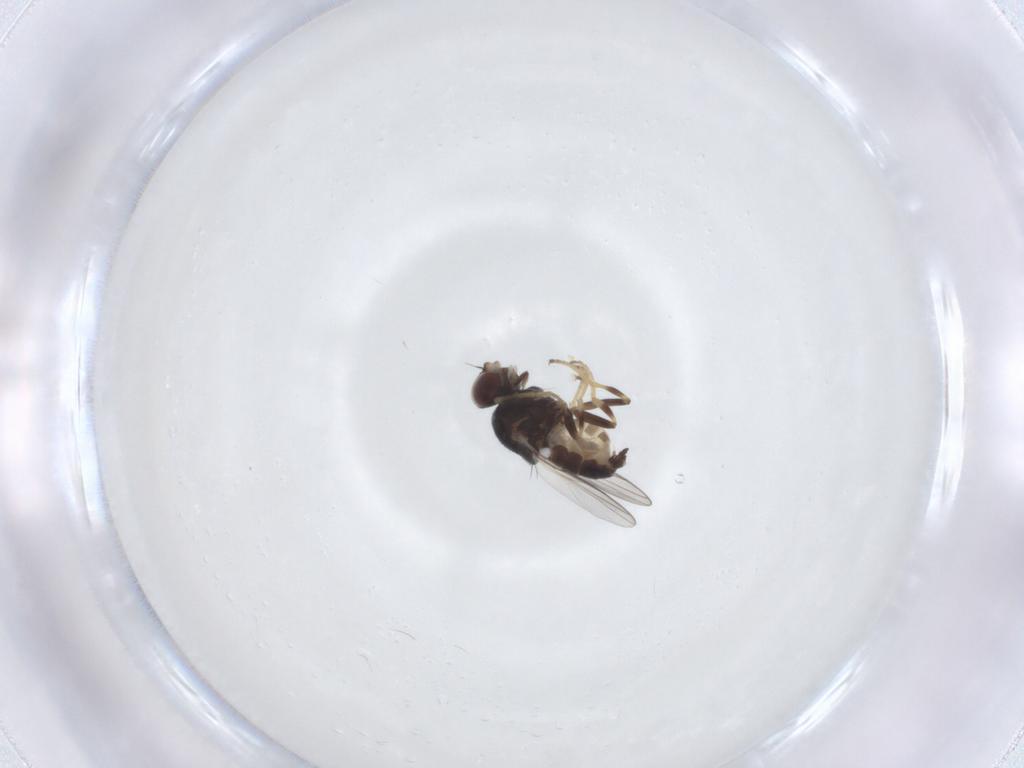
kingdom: Animalia
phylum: Arthropoda
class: Insecta
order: Diptera
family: Chloropidae
